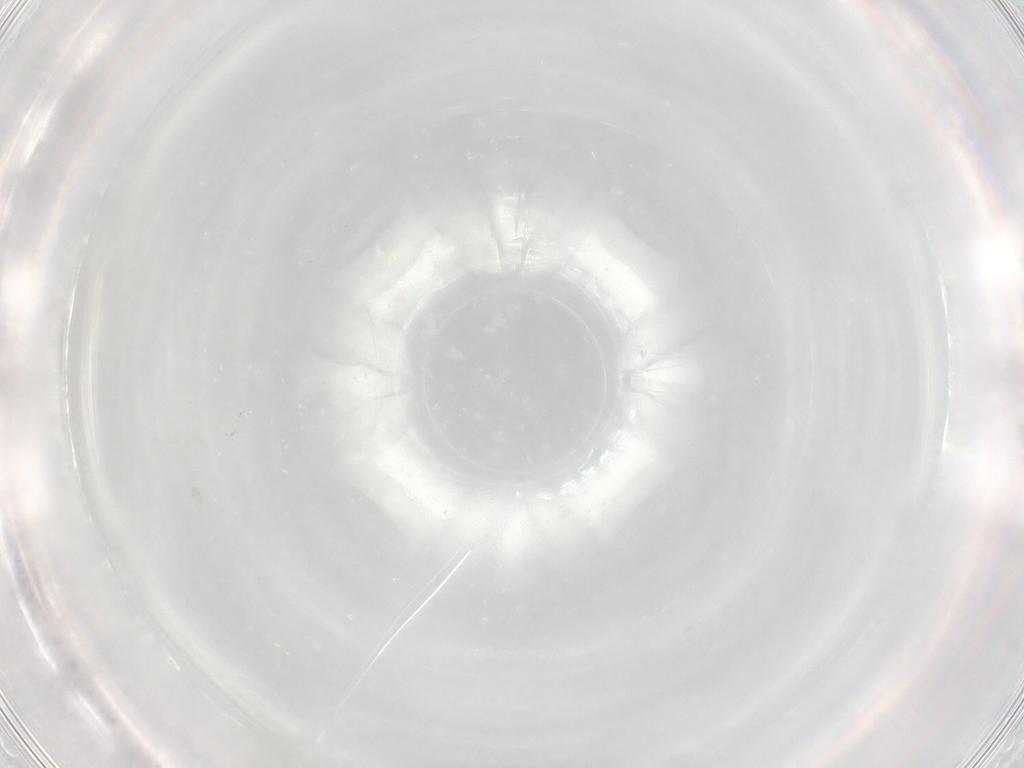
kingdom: Animalia
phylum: Arthropoda
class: Insecta
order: Lepidoptera
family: Psychidae
